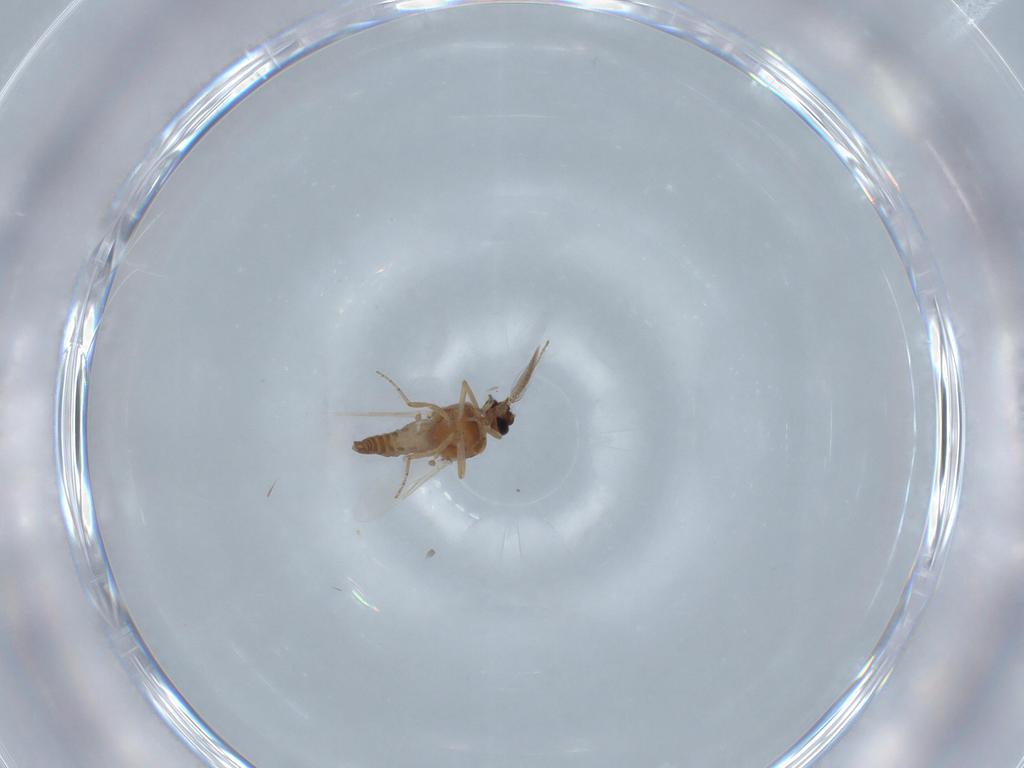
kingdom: Animalia
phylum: Arthropoda
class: Insecta
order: Diptera
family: Ceratopogonidae
